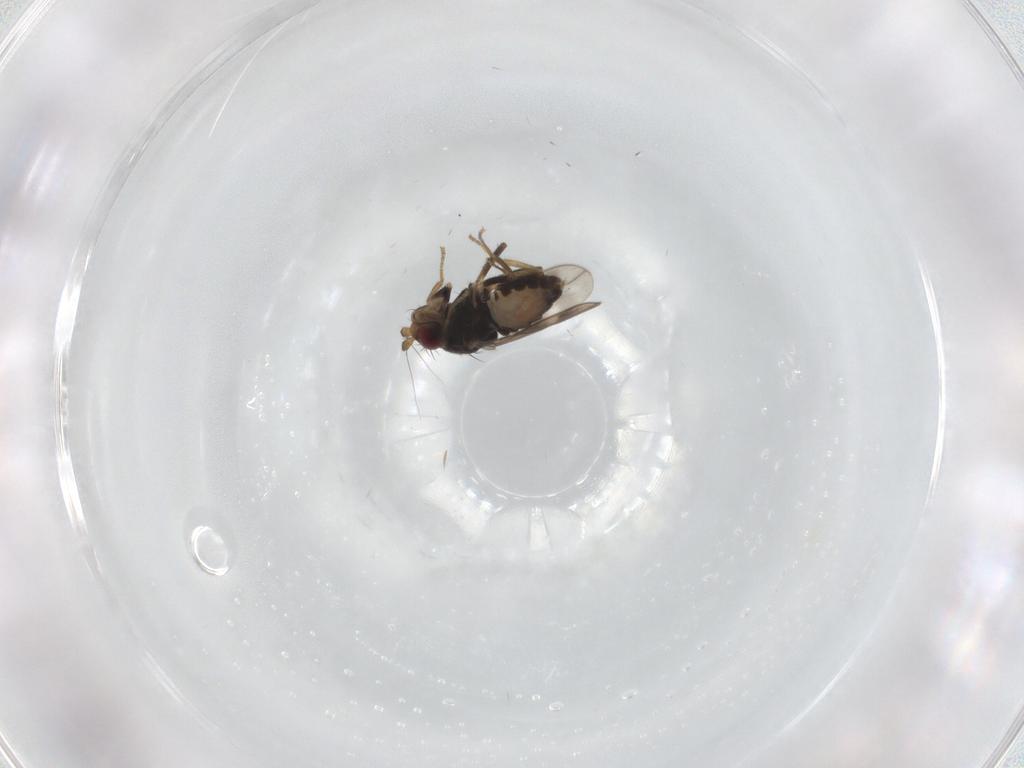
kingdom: Animalia
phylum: Arthropoda
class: Insecta
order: Diptera
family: Sphaeroceridae
